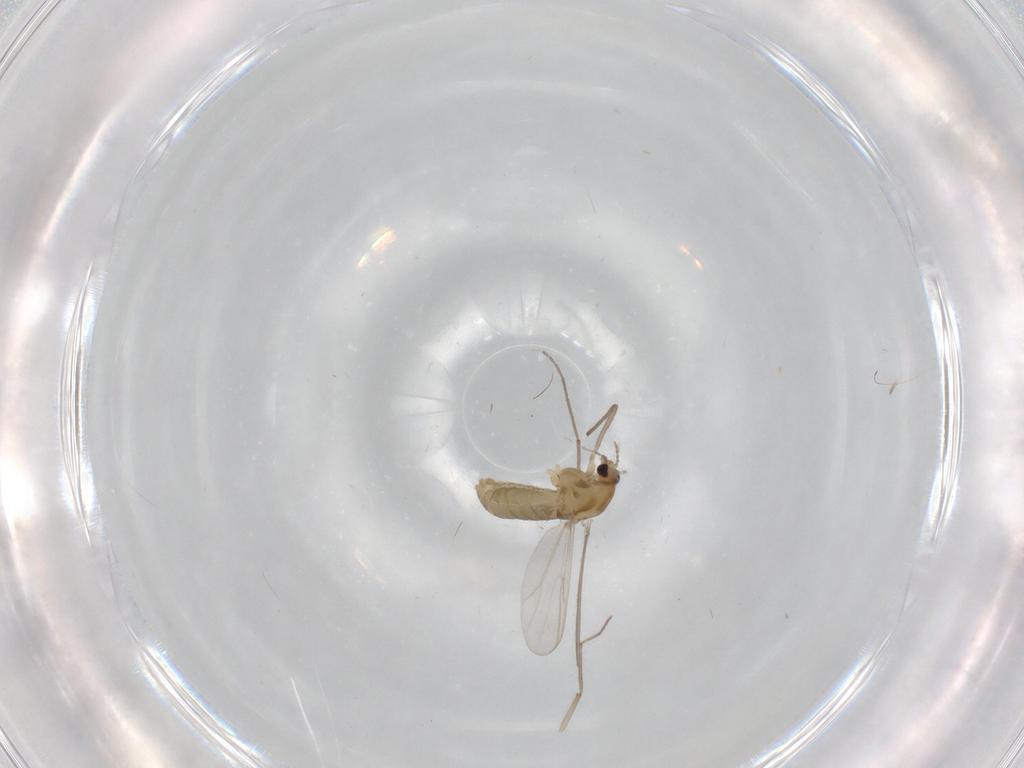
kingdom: Animalia
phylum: Arthropoda
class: Insecta
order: Diptera
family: Chironomidae
